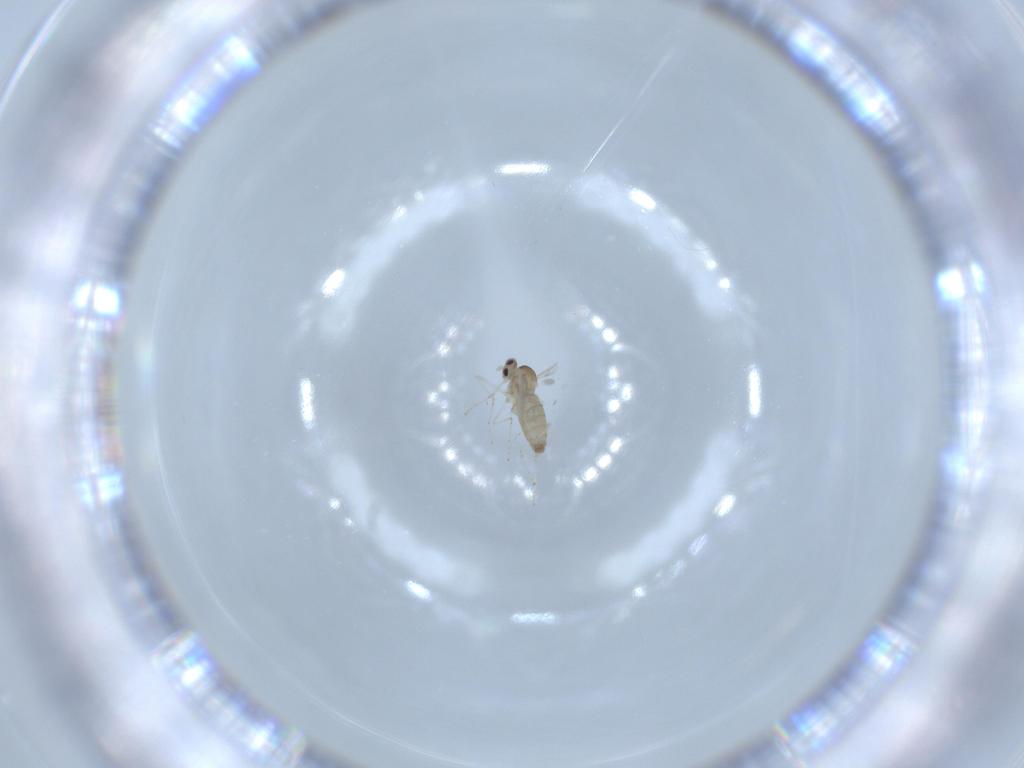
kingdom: Animalia
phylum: Arthropoda
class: Insecta
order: Diptera
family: Cecidomyiidae
